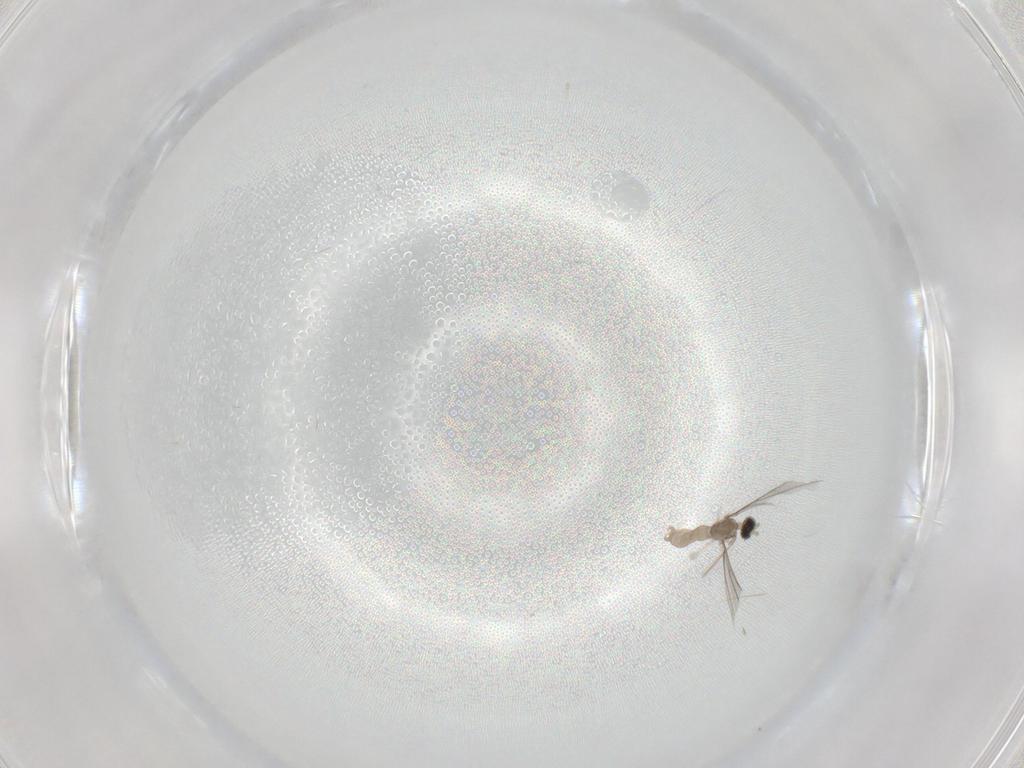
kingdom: Animalia
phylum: Arthropoda
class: Insecta
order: Diptera
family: Cecidomyiidae
